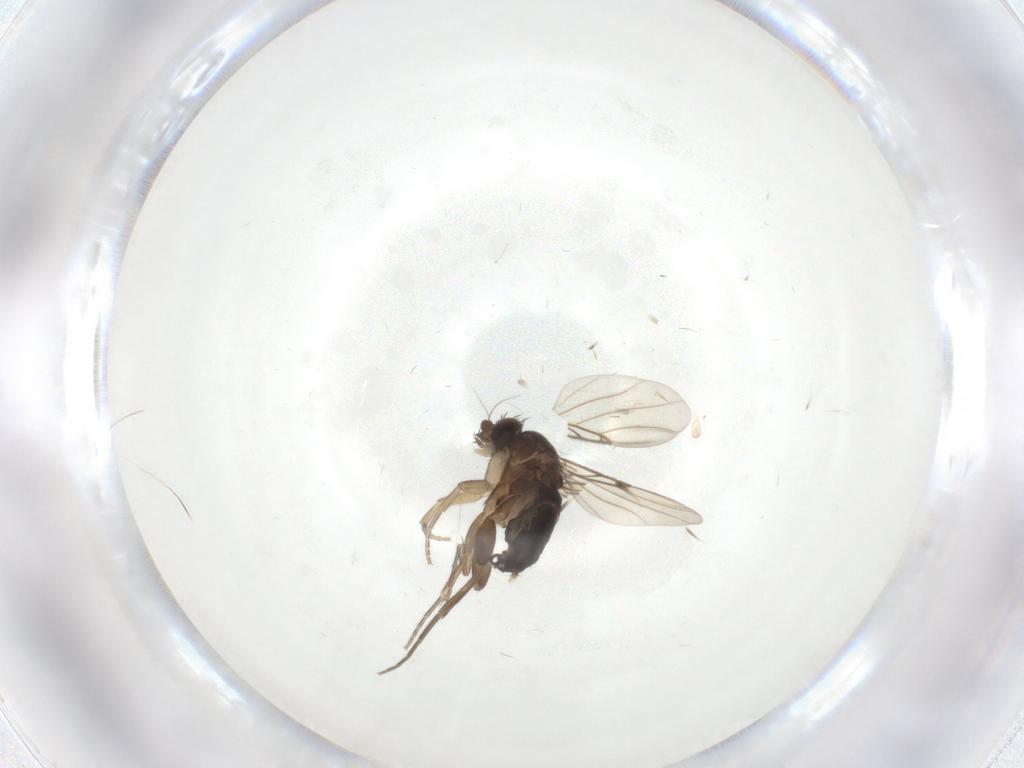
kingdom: Animalia
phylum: Arthropoda
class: Insecta
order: Diptera
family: Phoridae
